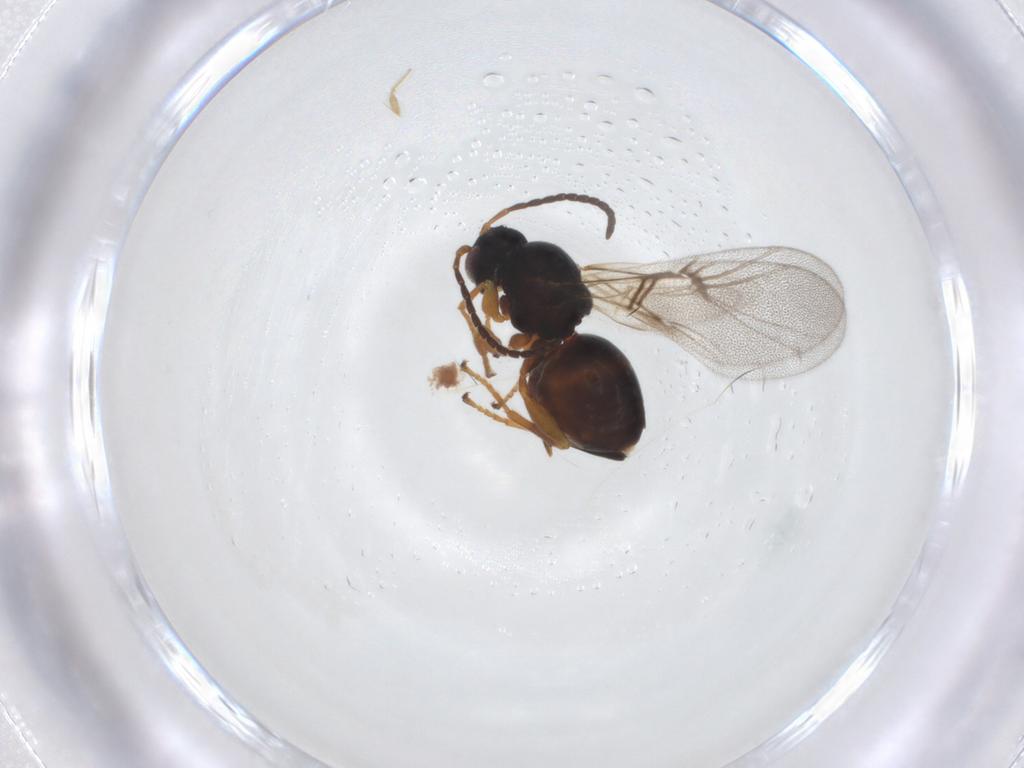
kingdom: Animalia
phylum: Arthropoda
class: Insecta
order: Hymenoptera
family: Cynipidae
